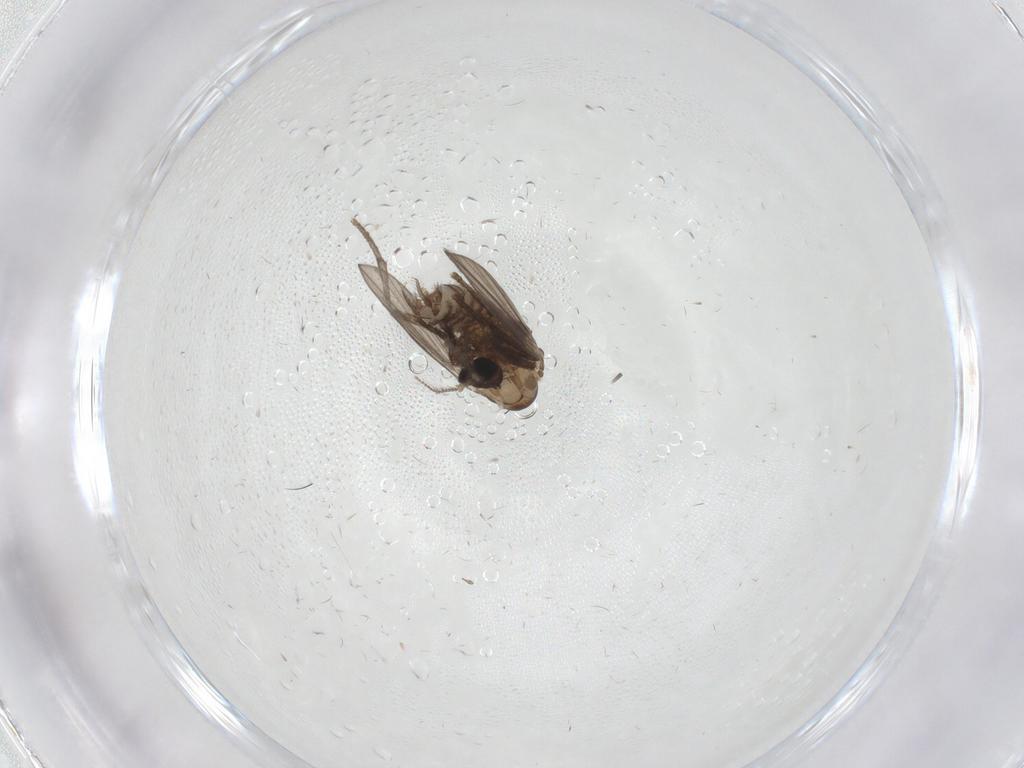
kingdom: Animalia
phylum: Arthropoda
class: Insecta
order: Diptera
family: Psychodidae
